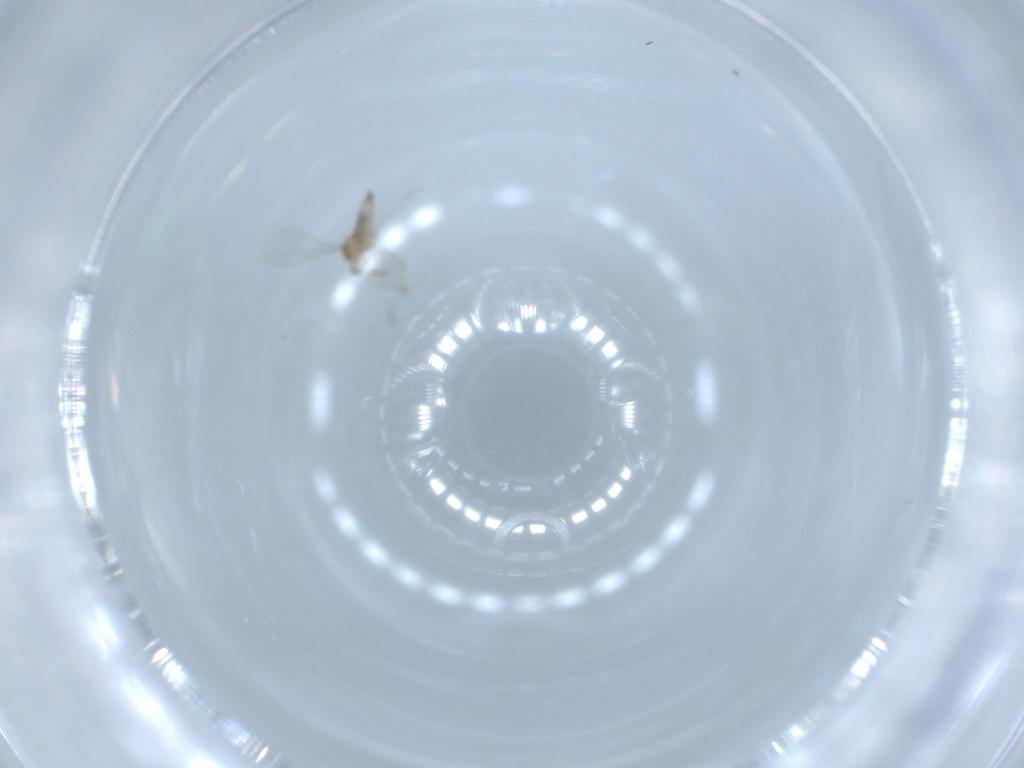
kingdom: Animalia
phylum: Arthropoda
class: Insecta
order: Diptera
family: Cecidomyiidae
